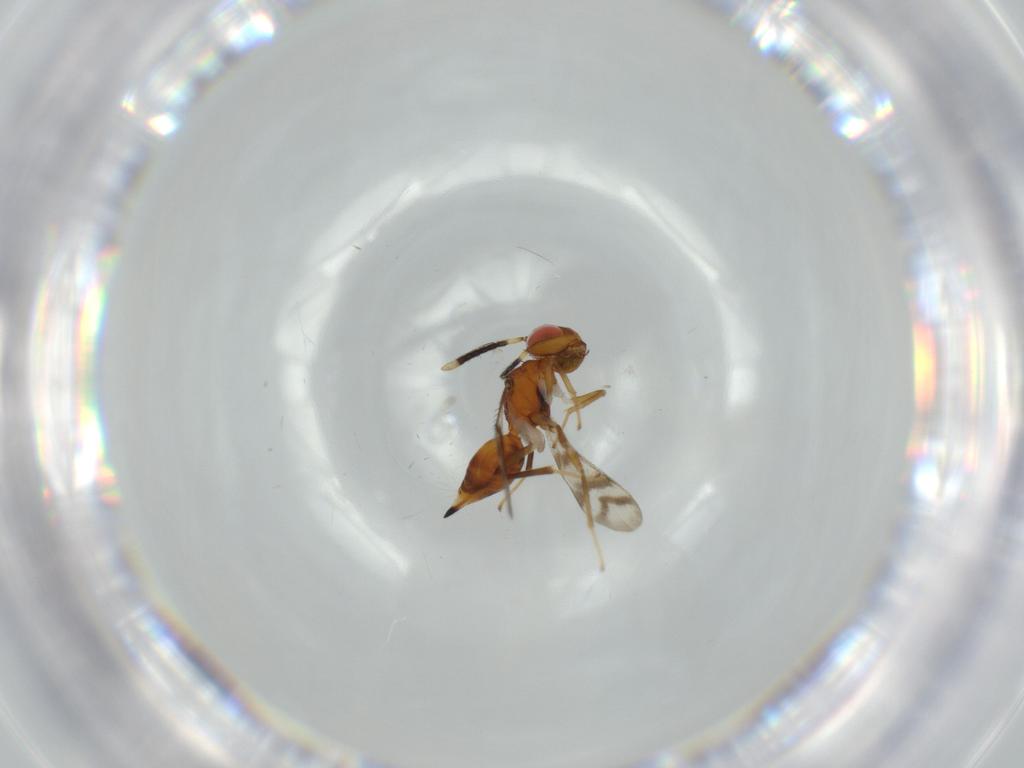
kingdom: Animalia
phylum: Arthropoda
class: Insecta
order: Hymenoptera
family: Diparidae
